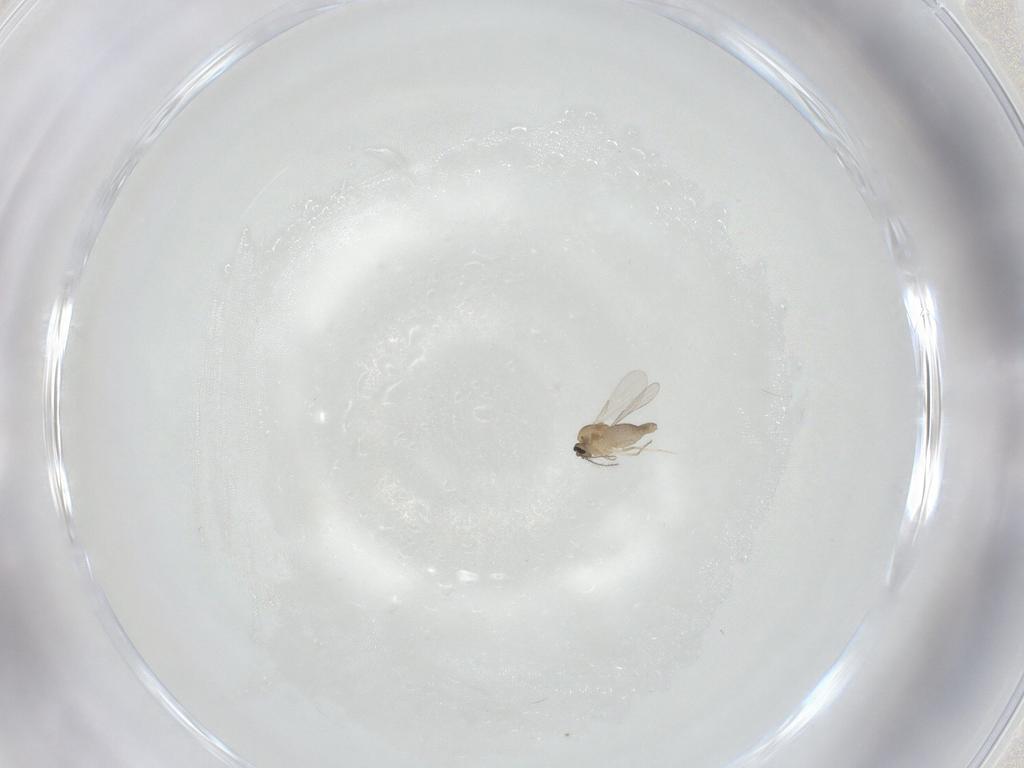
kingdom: Animalia
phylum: Arthropoda
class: Insecta
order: Diptera
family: Ceratopogonidae
